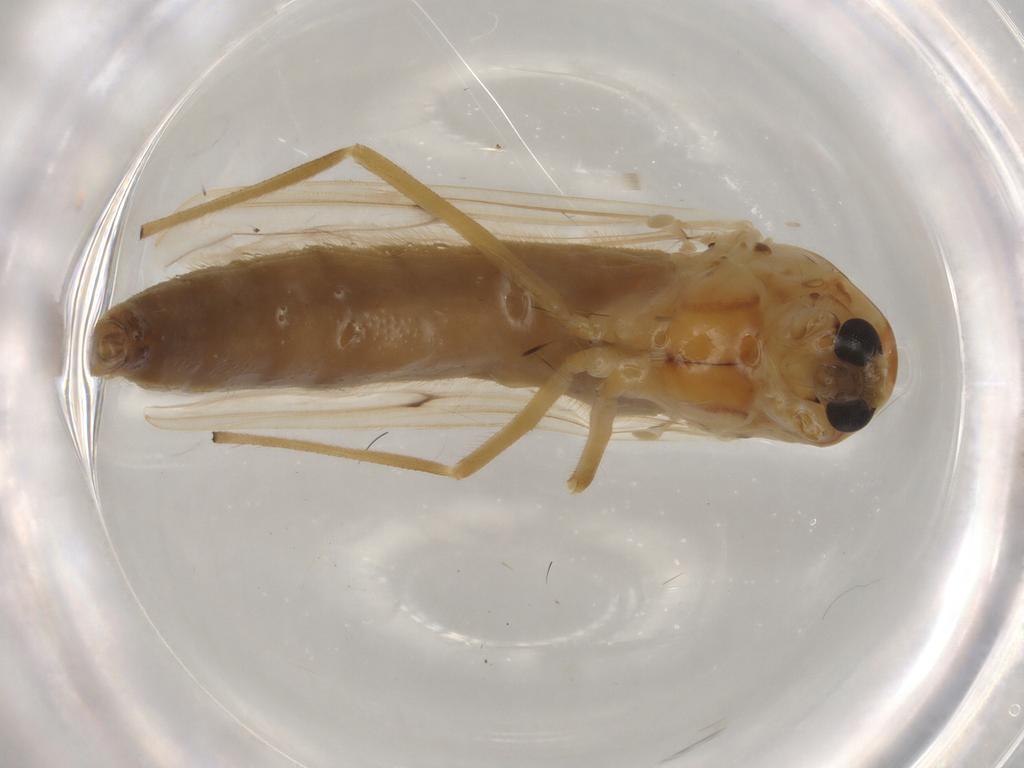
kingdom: Animalia
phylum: Arthropoda
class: Insecta
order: Diptera
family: Chironomidae
